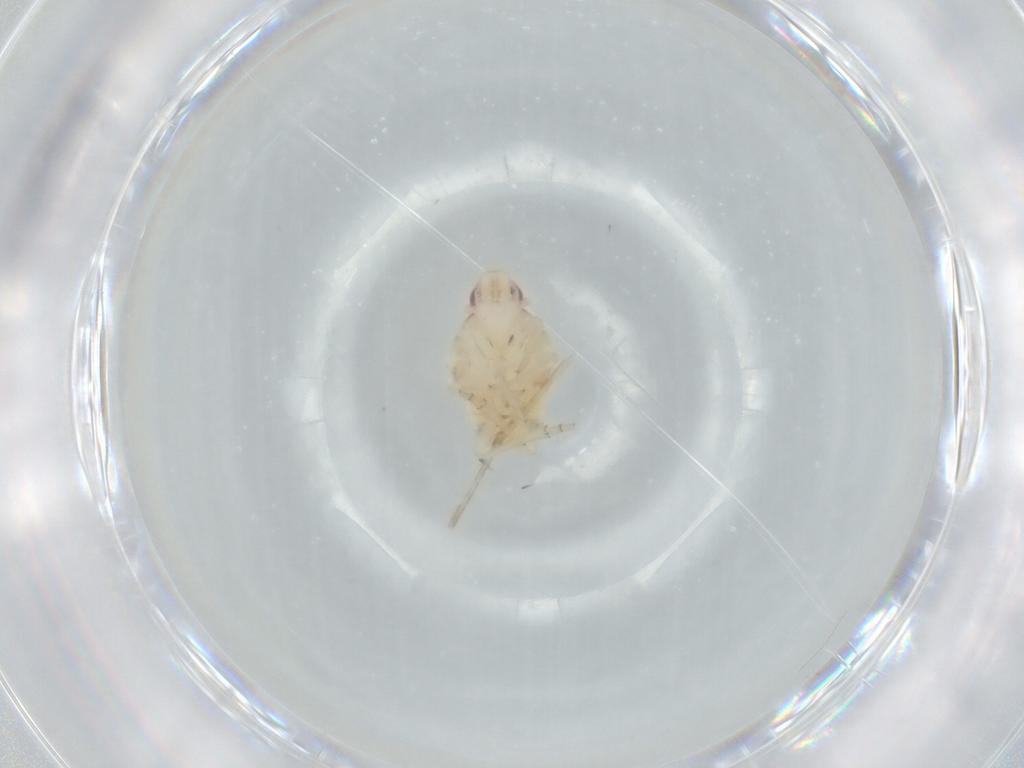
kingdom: Animalia
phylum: Arthropoda
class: Insecta
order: Hemiptera
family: Flatidae
